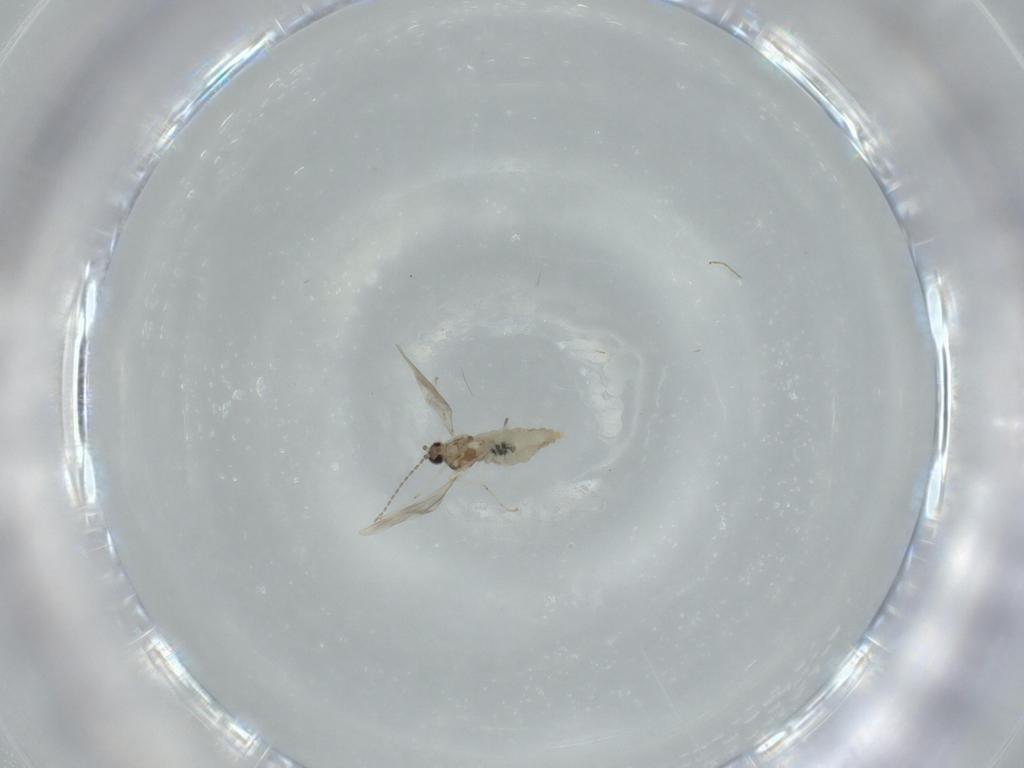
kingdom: Animalia
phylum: Arthropoda
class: Insecta
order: Diptera
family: Cecidomyiidae
